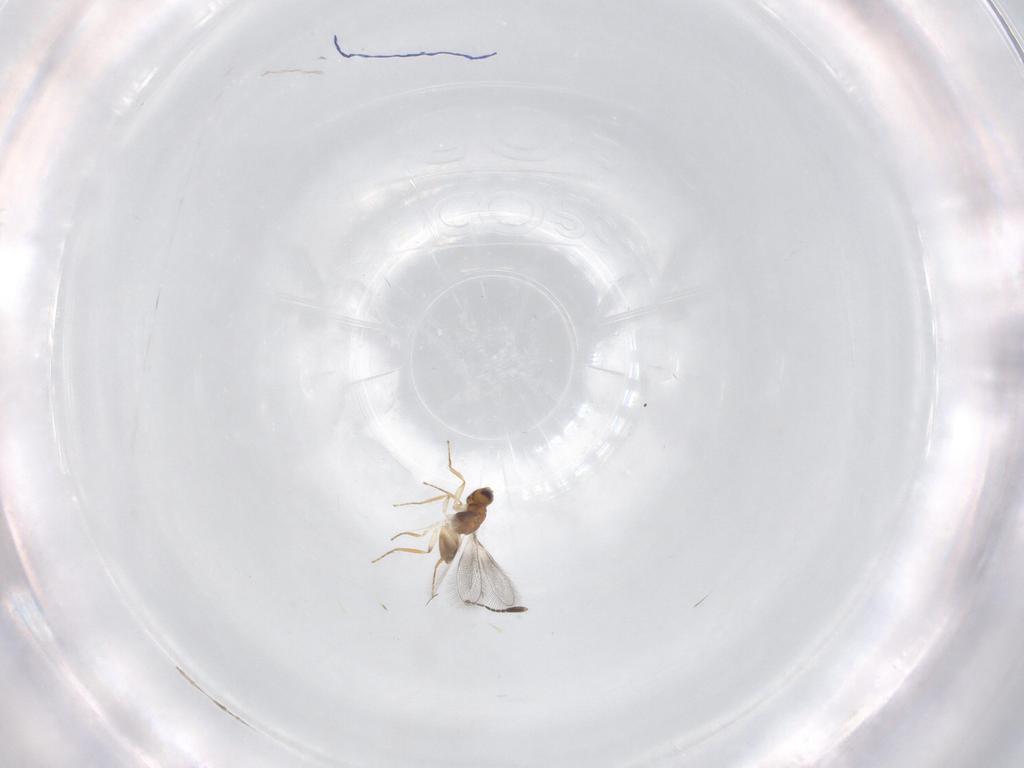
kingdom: Animalia
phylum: Arthropoda
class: Insecta
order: Hymenoptera
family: Mymaridae
